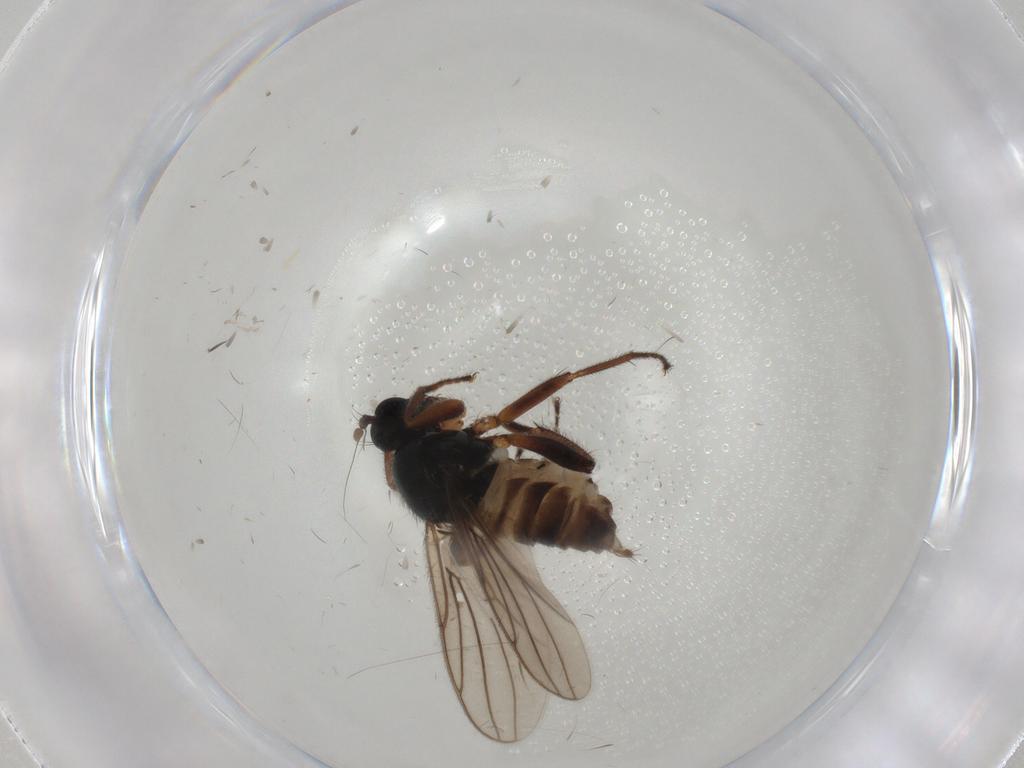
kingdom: Animalia
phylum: Arthropoda
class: Insecta
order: Diptera
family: Hybotidae
